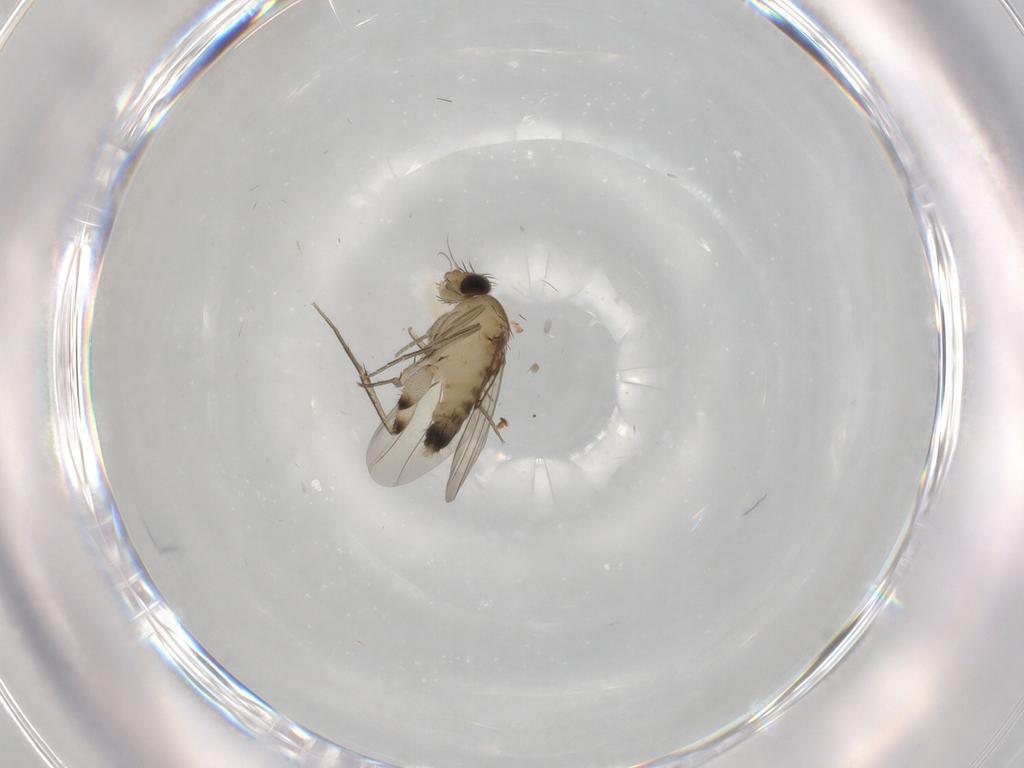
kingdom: Animalia
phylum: Arthropoda
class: Insecta
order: Diptera
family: Phoridae
